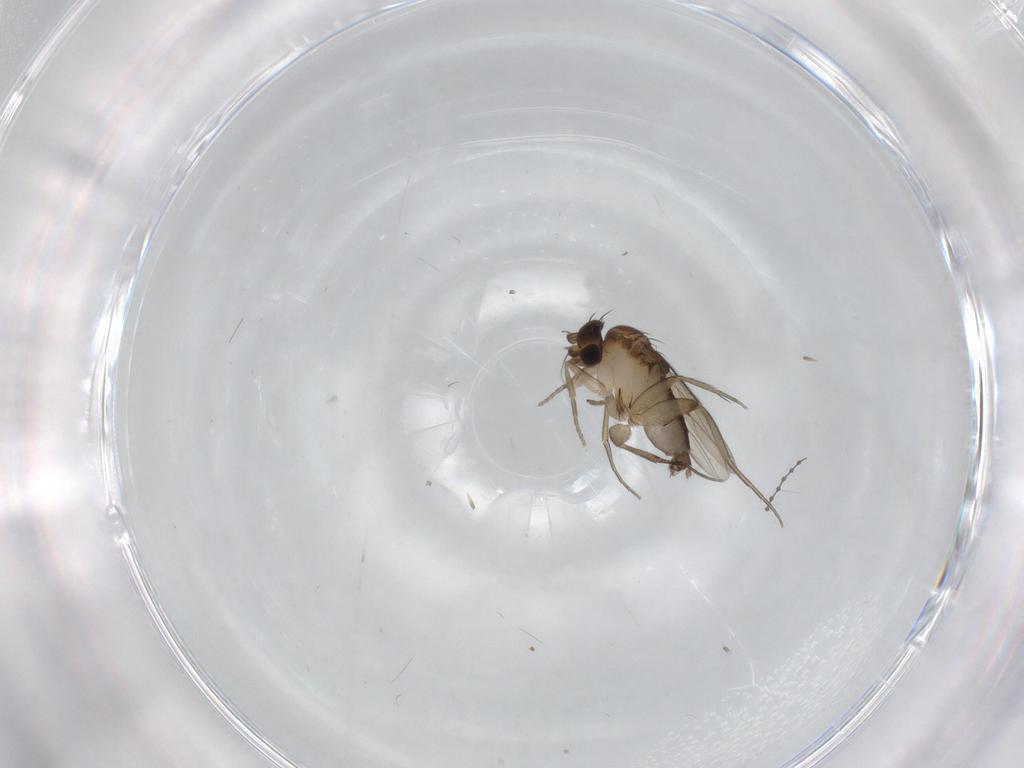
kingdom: Animalia
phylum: Arthropoda
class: Insecta
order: Diptera
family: Phoridae
